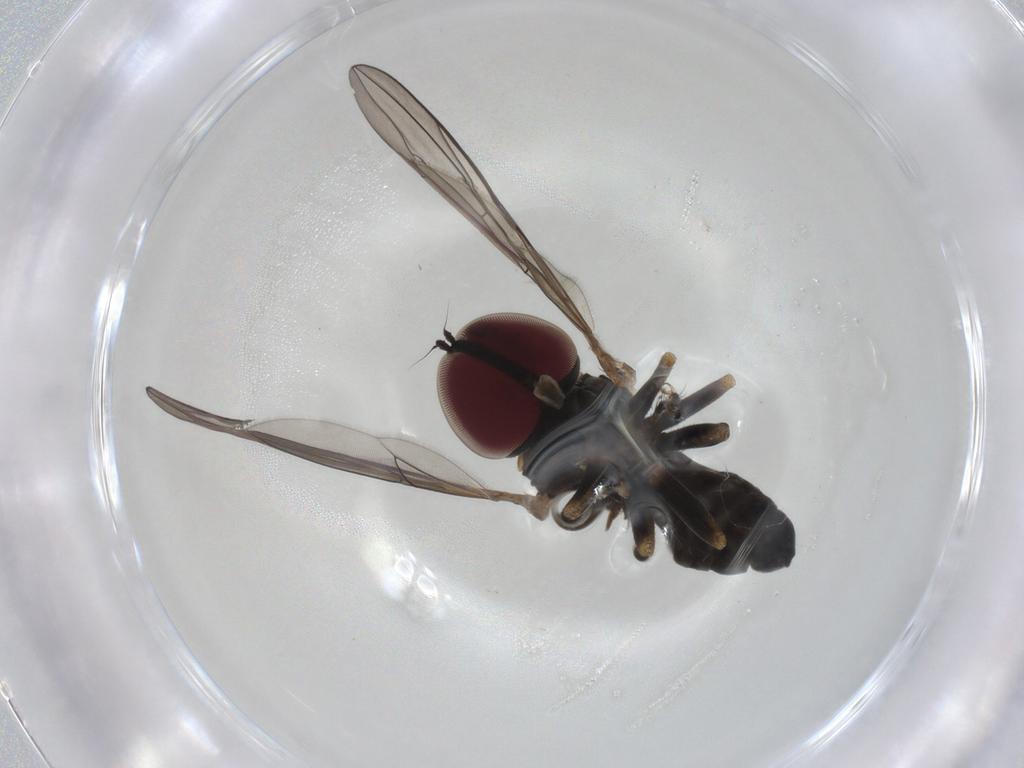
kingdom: Animalia
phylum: Arthropoda
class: Insecta
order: Diptera
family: Pipunculidae
